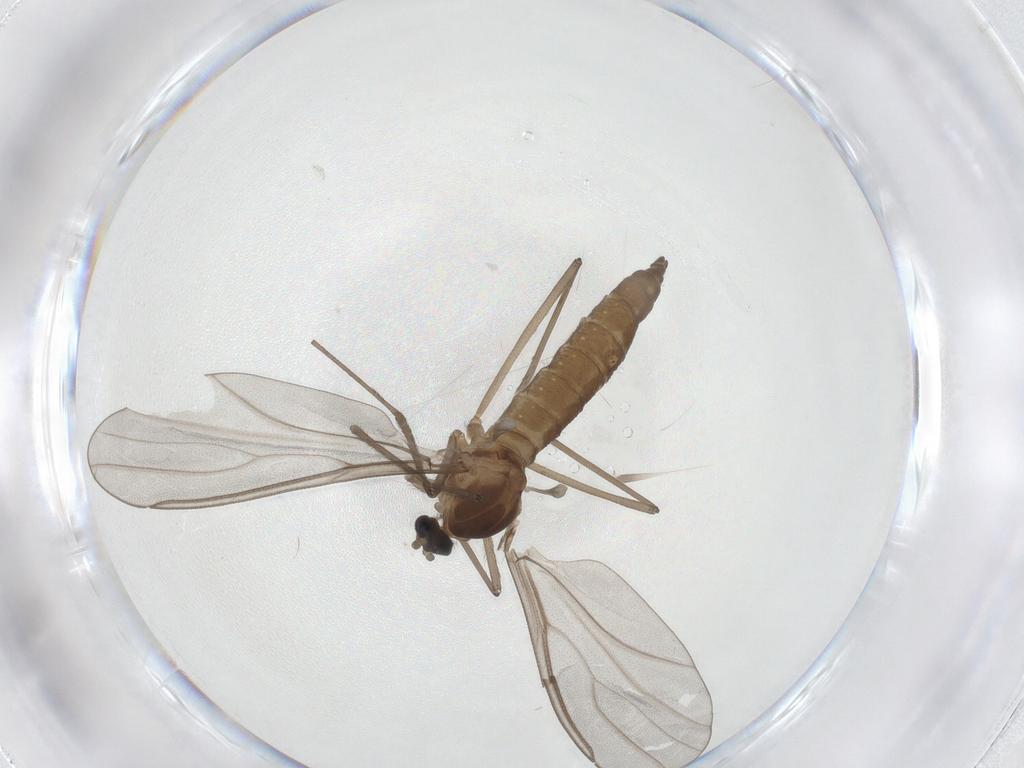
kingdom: Animalia
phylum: Arthropoda
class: Insecta
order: Diptera
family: Cecidomyiidae
